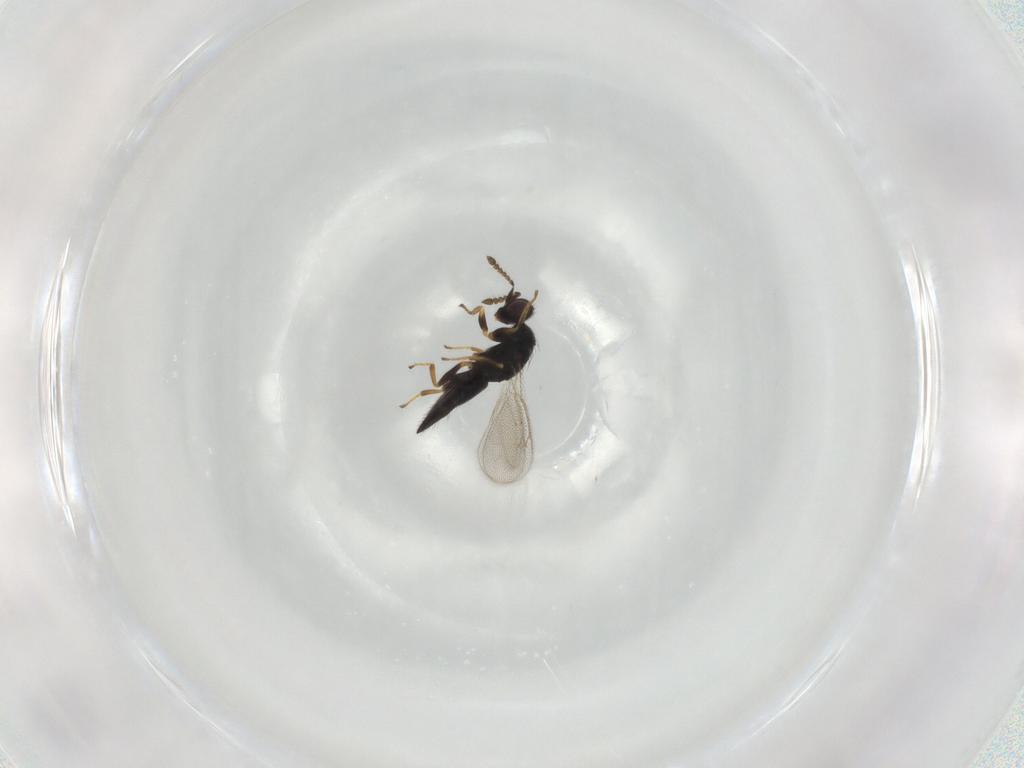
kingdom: Animalia
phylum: Arthropoda
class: Insecta
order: Hymenoptera
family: Eulophidae
